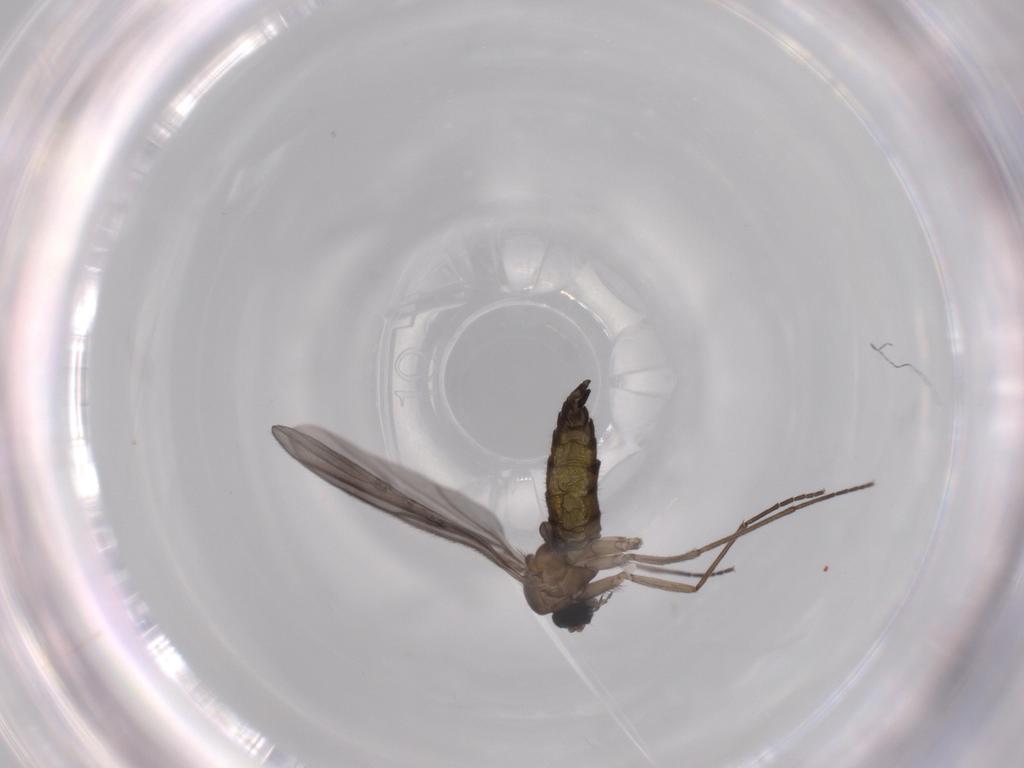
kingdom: Animalia
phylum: Arthropoda
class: Insecta
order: Diptera
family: Sciaridae
